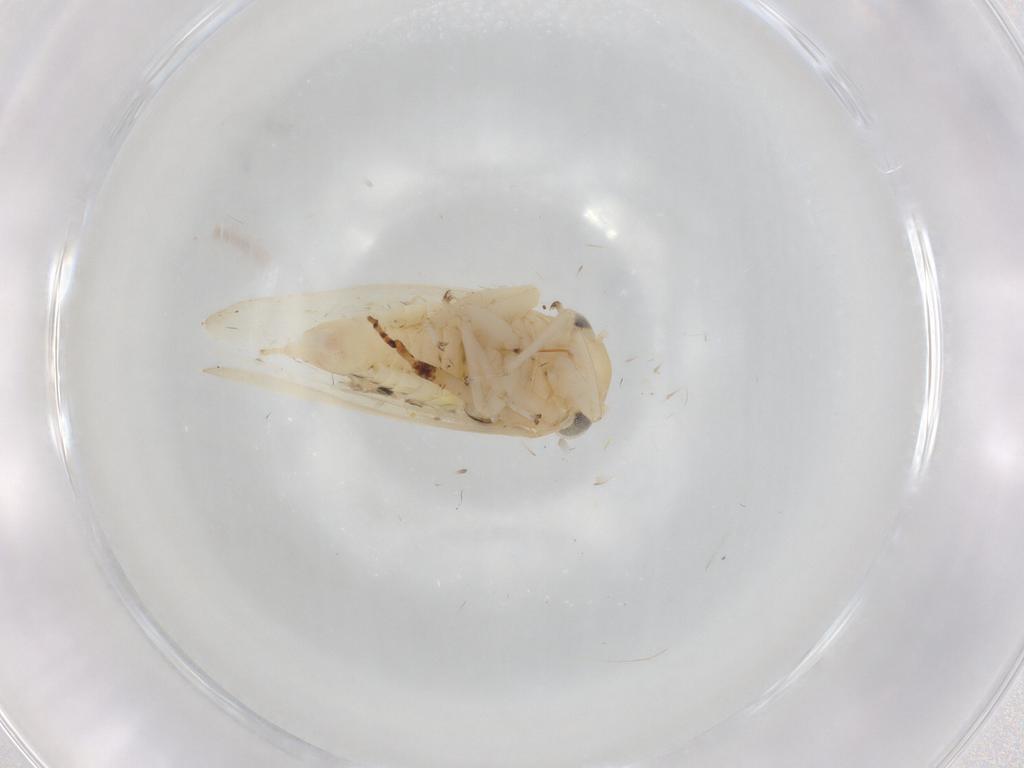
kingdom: Animalia
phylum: Arthropoda
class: Insecta
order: Hemiptera
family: Cicadellidae
